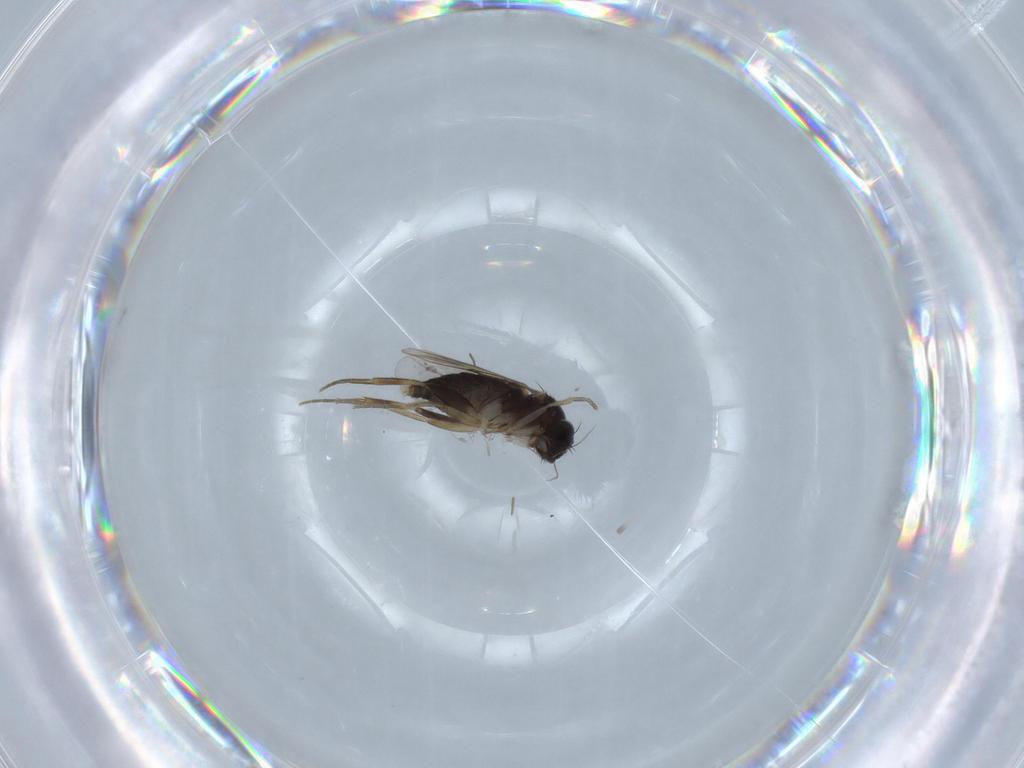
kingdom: Animalia
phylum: Arthropoda
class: Insecta
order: Diptera
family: Phoridae
